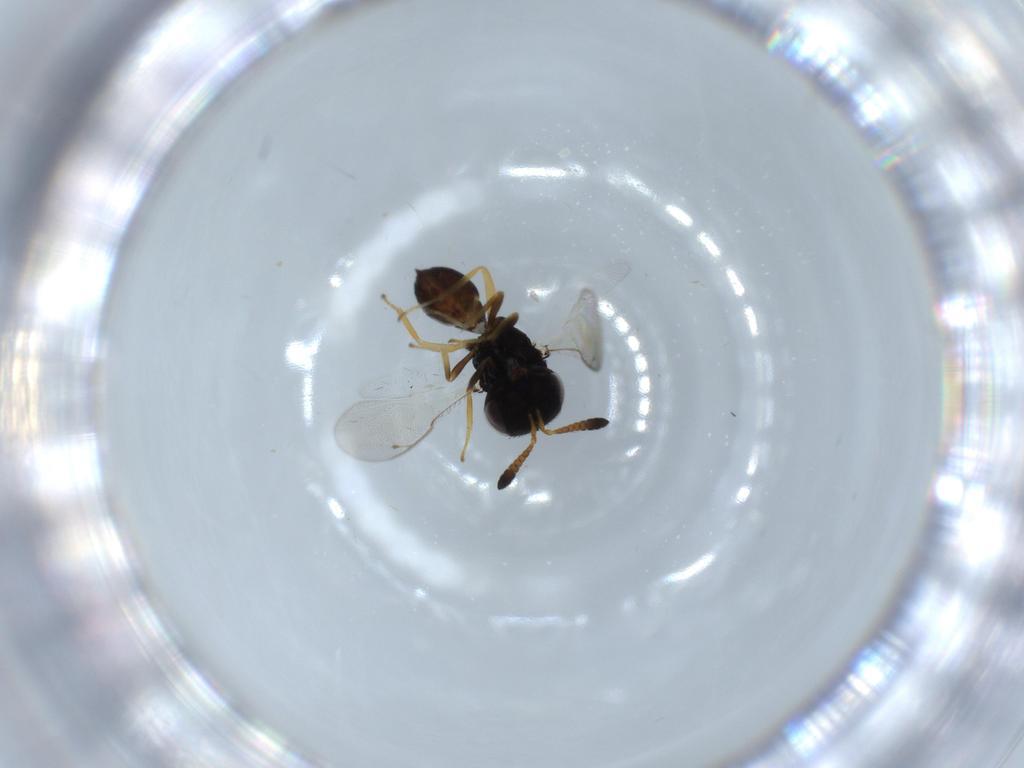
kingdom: Animalia
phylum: Arthropoda
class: Insecta
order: Hymenoptera
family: Pteromalidae
